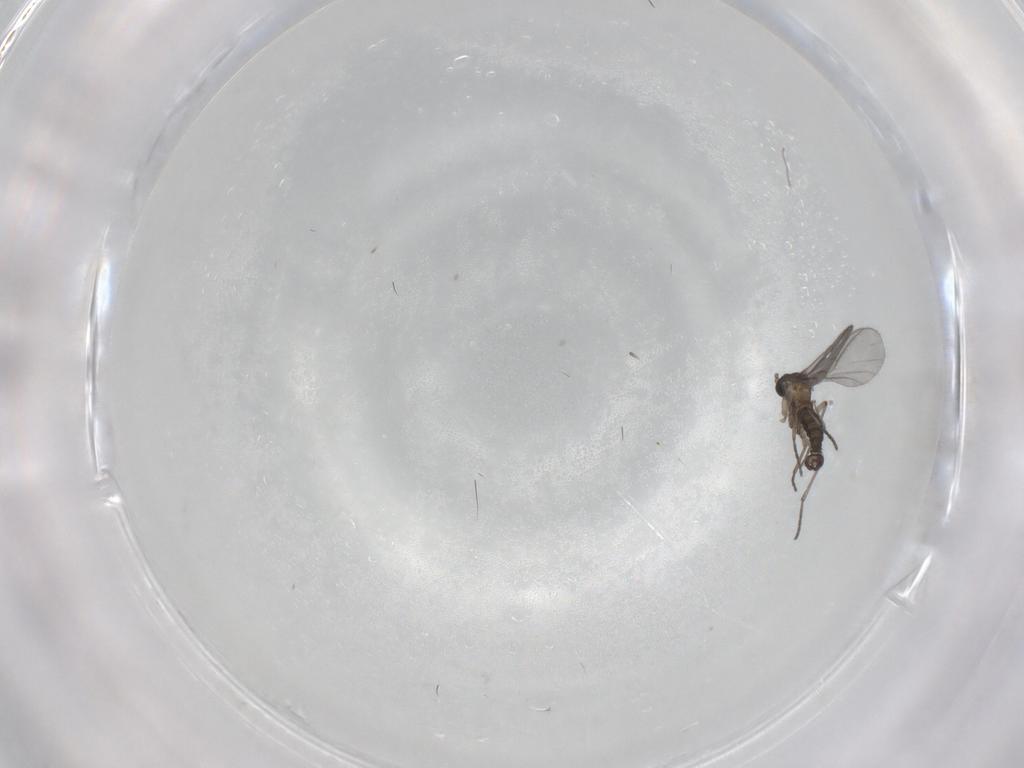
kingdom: Animalia
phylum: Arthropoda
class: Insecta
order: Diptera
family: Sciaridae
